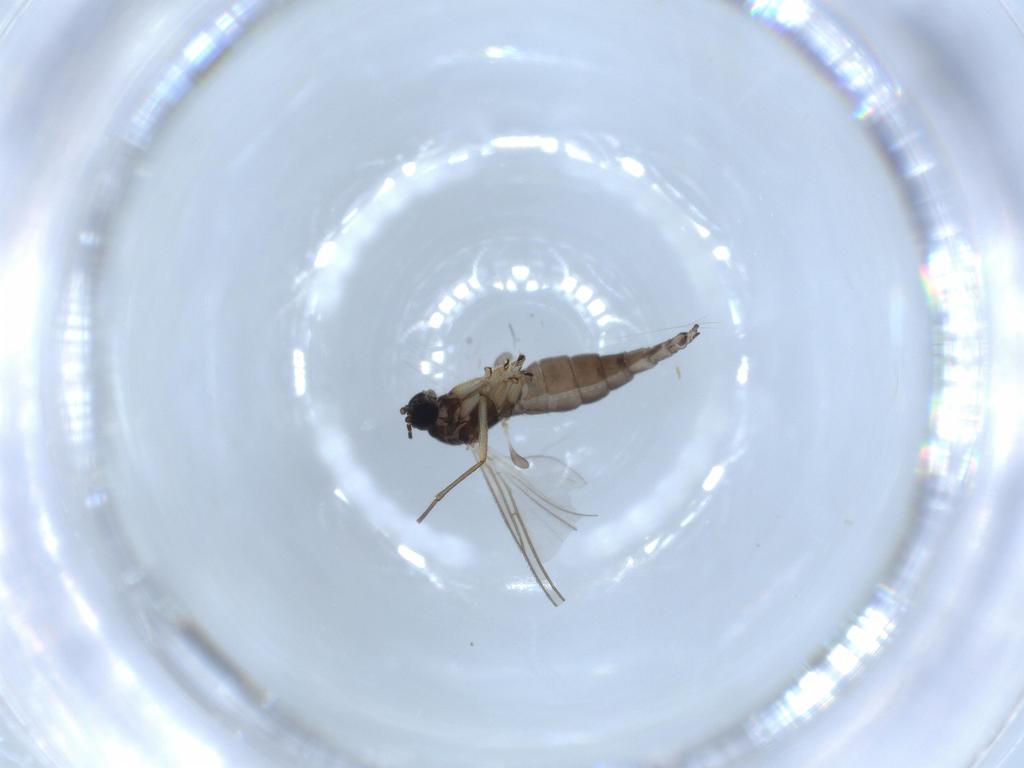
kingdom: Animalia
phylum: Arthropoda
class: Insecta
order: Diptera
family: Sciaridae
